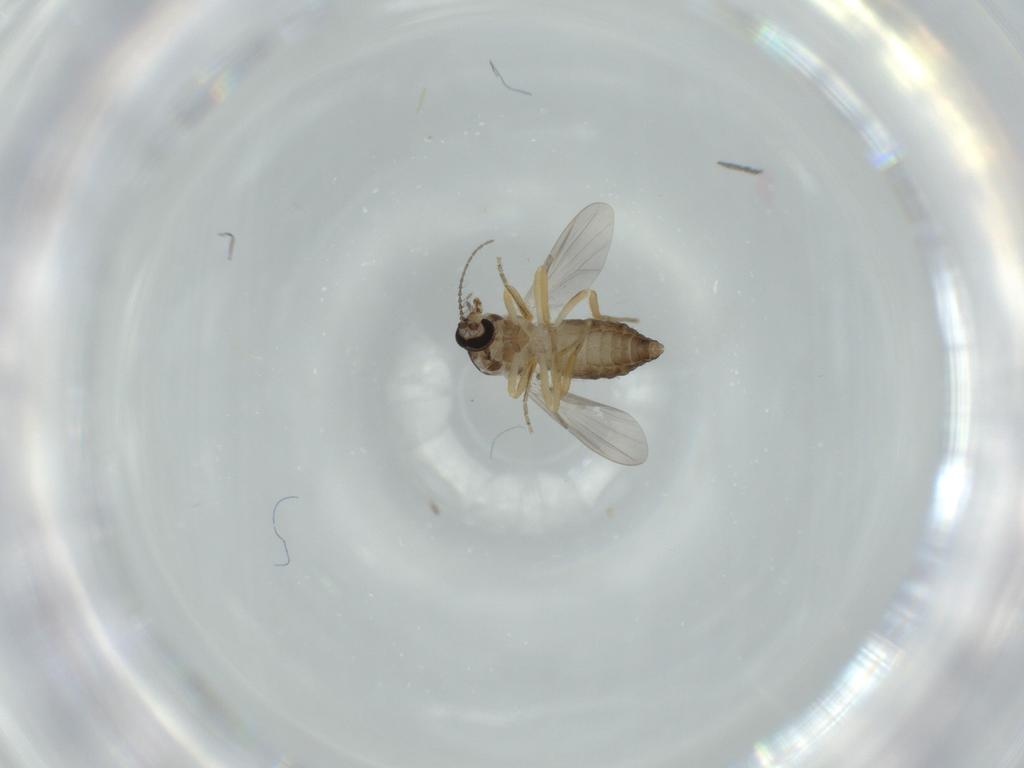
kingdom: Animalia
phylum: Arthropoda
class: Insecta
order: Diptera
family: Ceratopogonidae
